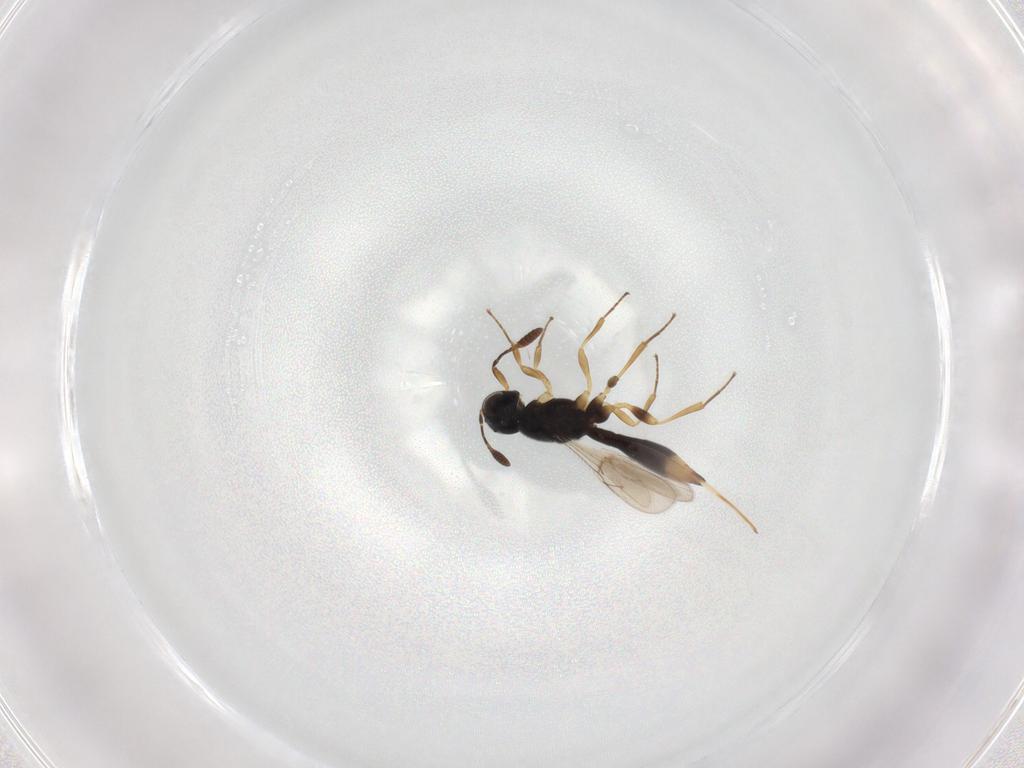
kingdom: Animalia
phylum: Arthropoda
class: Insecta
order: Hymenoptera
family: Scelionidae
